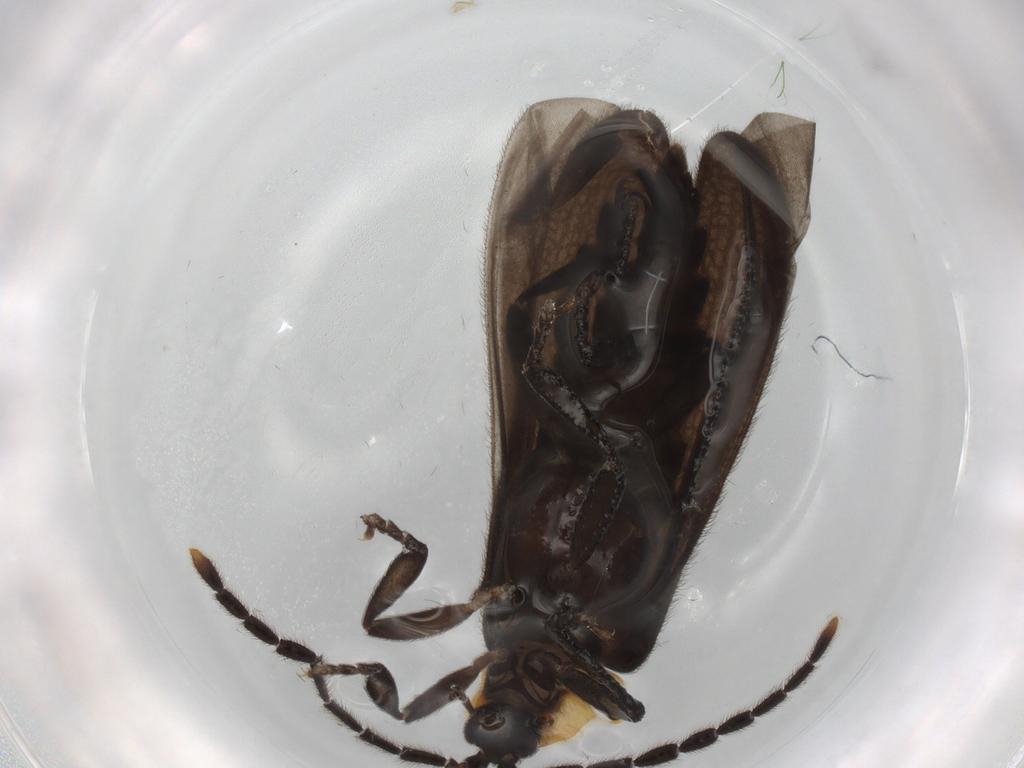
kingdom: Animalia
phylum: Arthropoda
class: Insecta
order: Coleoptera
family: Lycidae
